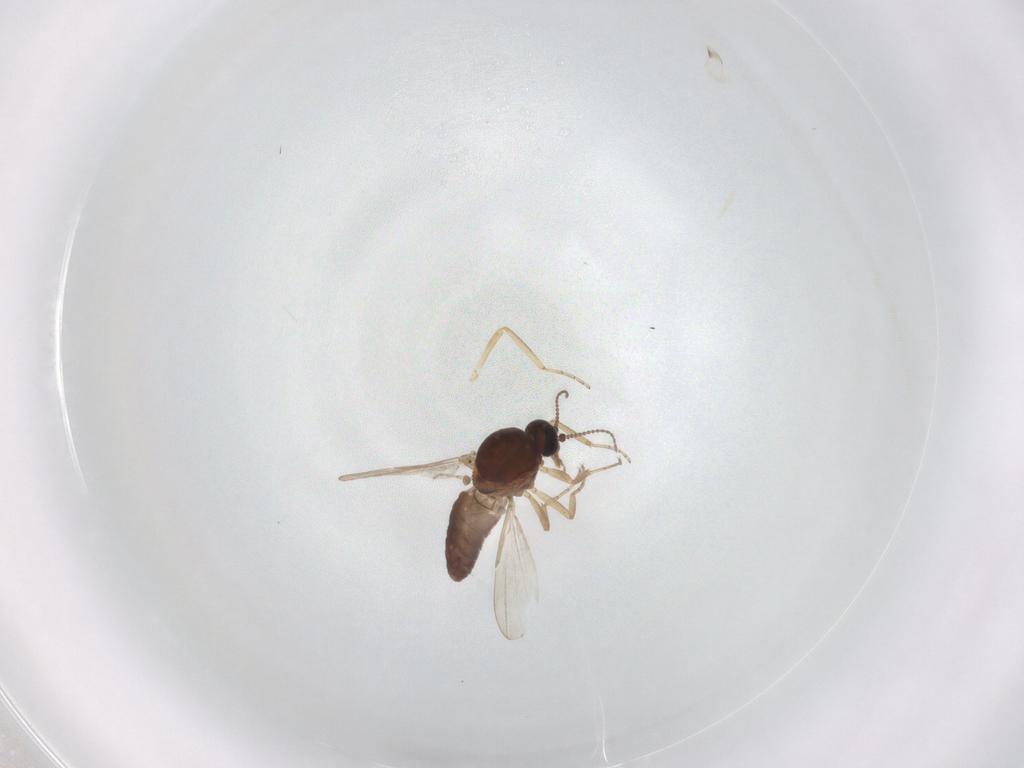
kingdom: Animalia
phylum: Arthropoda
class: Insecta
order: Diptera
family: Ceratopogonidae
